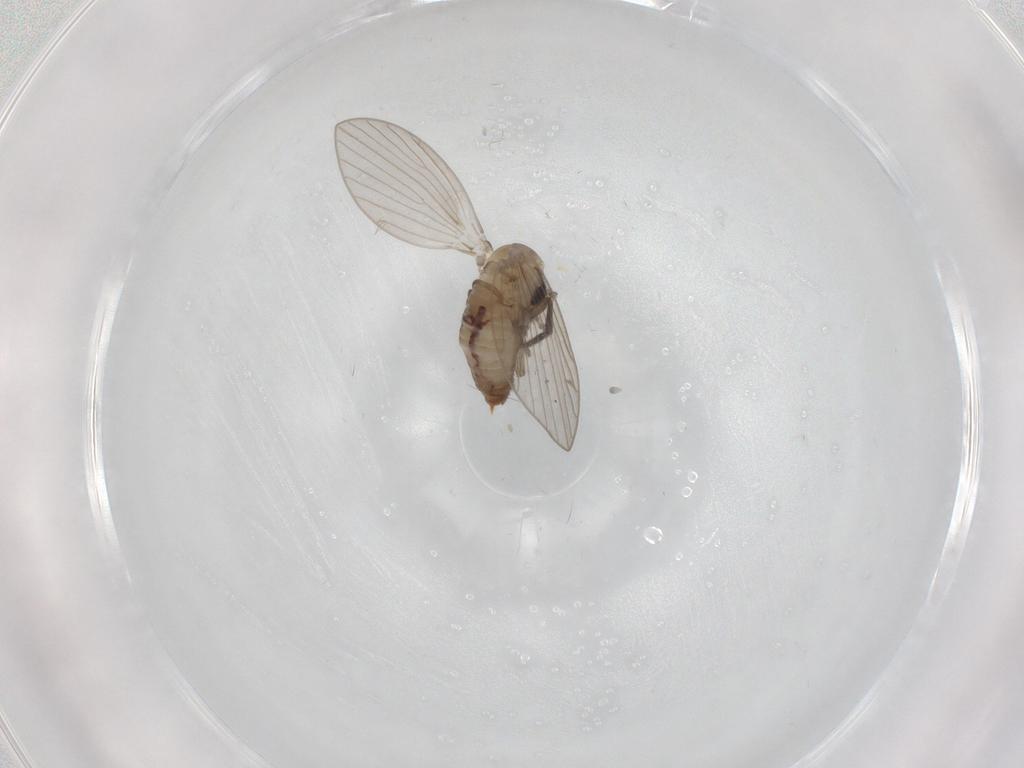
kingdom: Animalia
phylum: Arthropoda
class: Insecta
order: Diptera
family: Psychodidae
